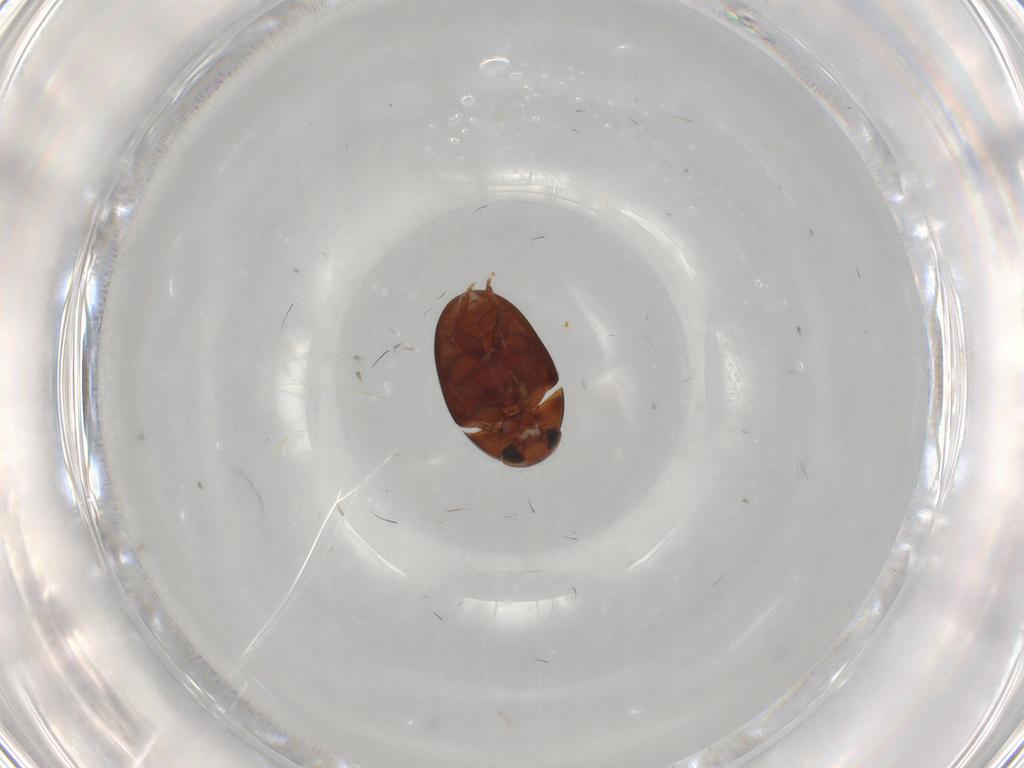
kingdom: Animalia
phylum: Arthropoda
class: Insecta
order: Coleoptera
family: Phalacridae
